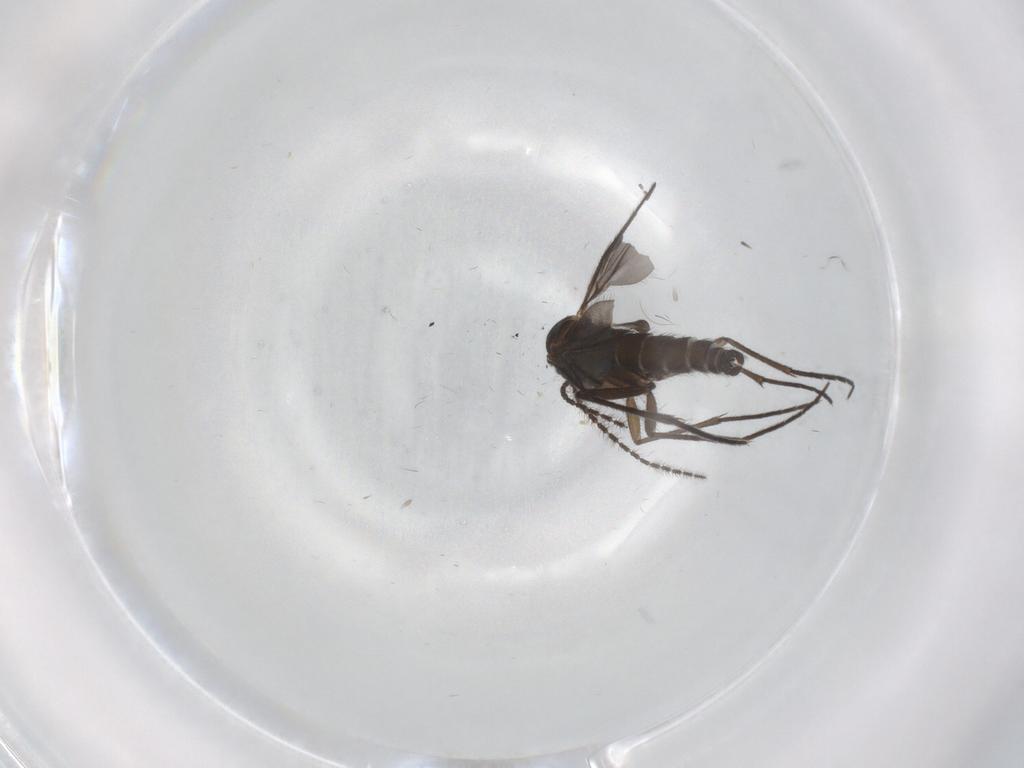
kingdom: Animalia
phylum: Arthropoda
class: Insecta
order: Diptera
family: Sciaridae
